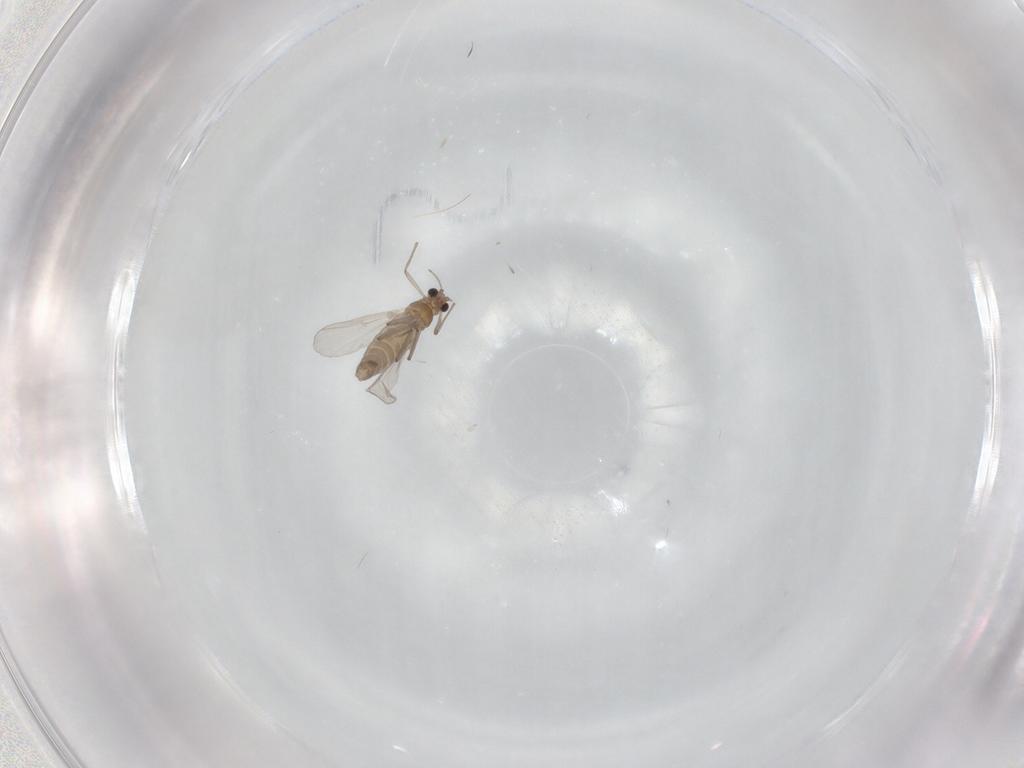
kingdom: Animalia
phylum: Arthropoda
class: Insecta
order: Diptera
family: Chironomidae
